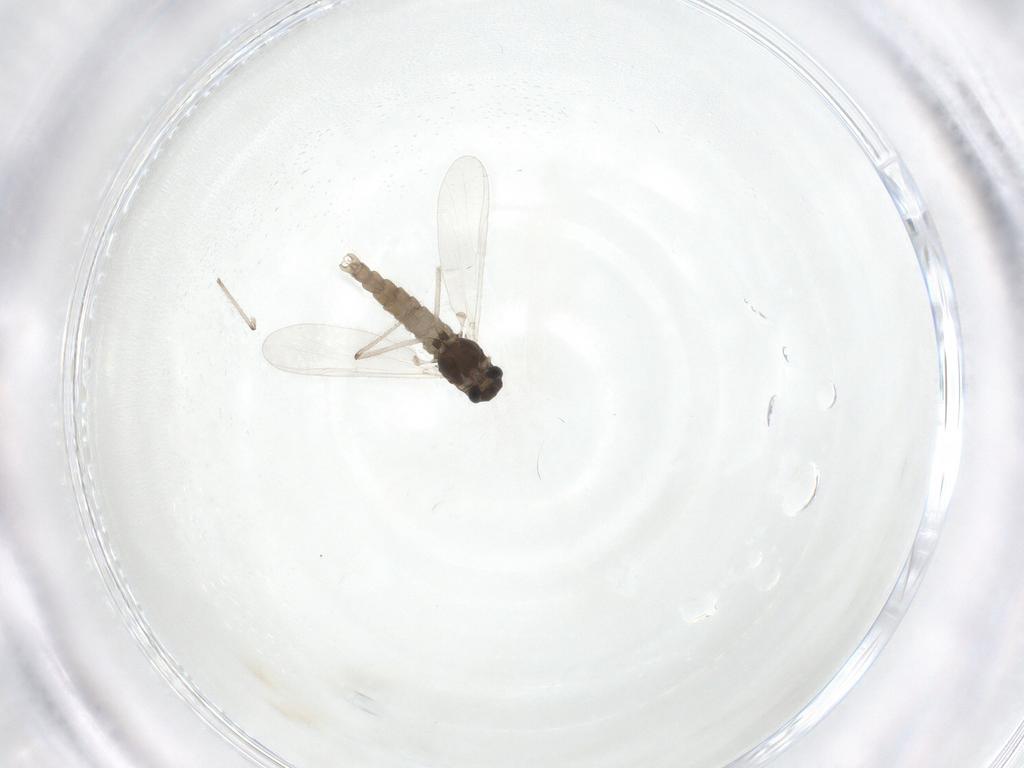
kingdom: Animalia
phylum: Arthropoda
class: Insecta
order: Diptera
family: Chironomidae
